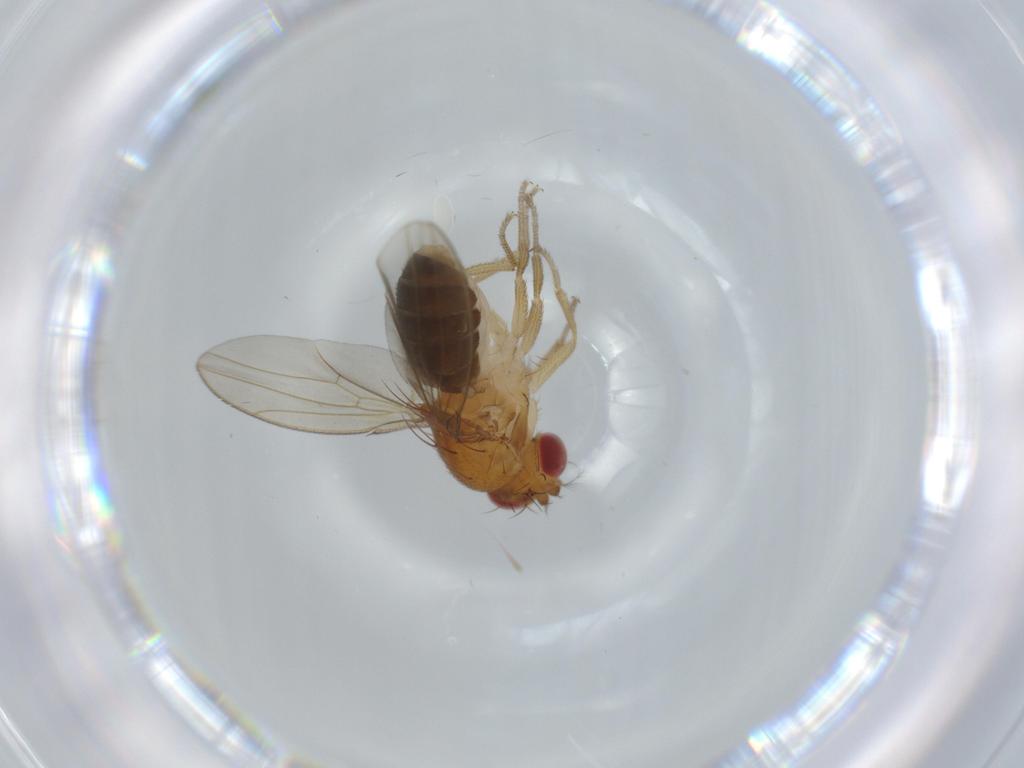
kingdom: Animalia
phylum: Arthropoda
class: Insecta
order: Diptera
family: Drosophilidae
